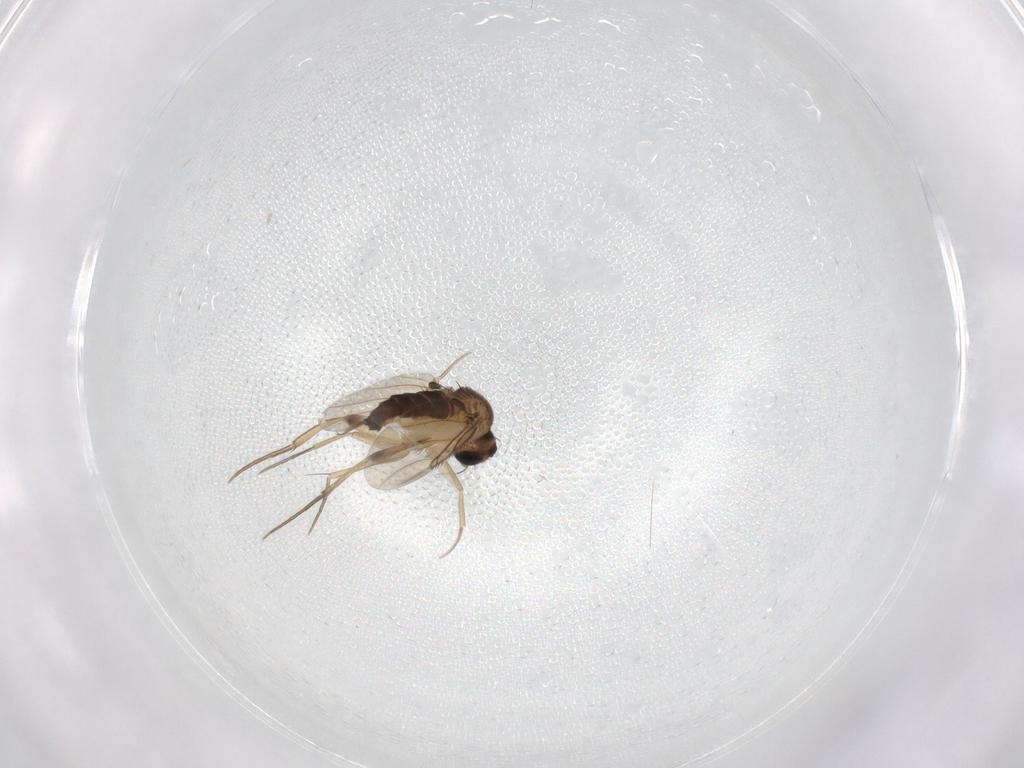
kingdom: Animalia
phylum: Arthropoda
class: Insecta
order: Diptera
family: Phoridae
